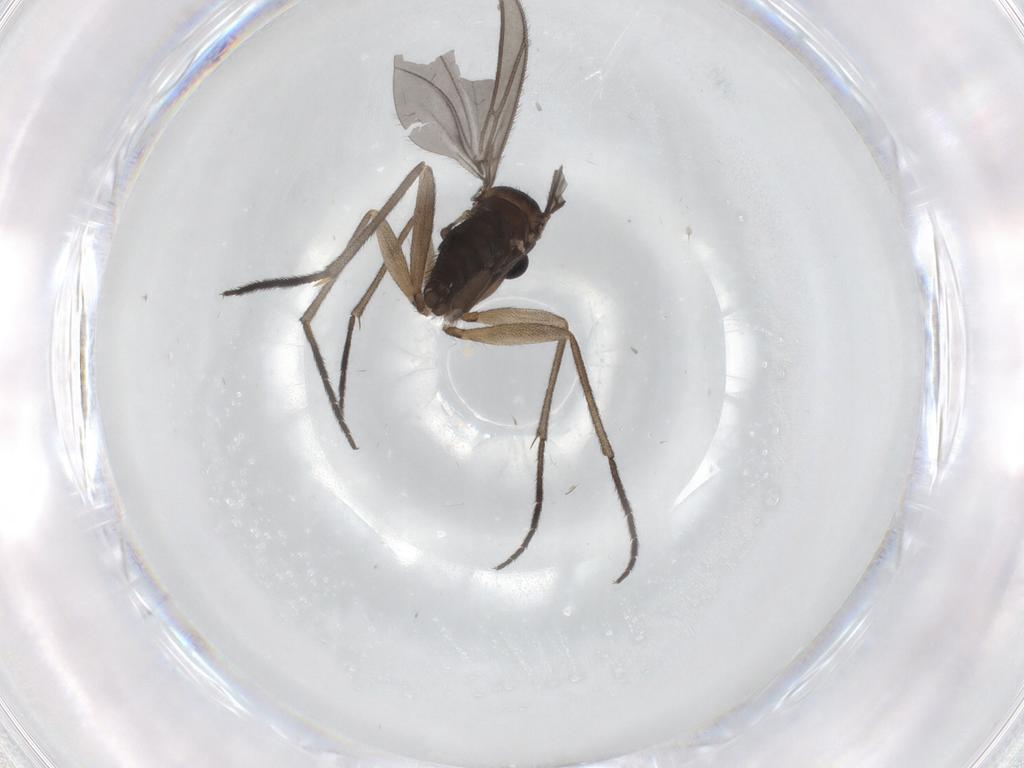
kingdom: Animalia
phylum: Arthropoda
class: Insecta
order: Diptera
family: Sciaridae
